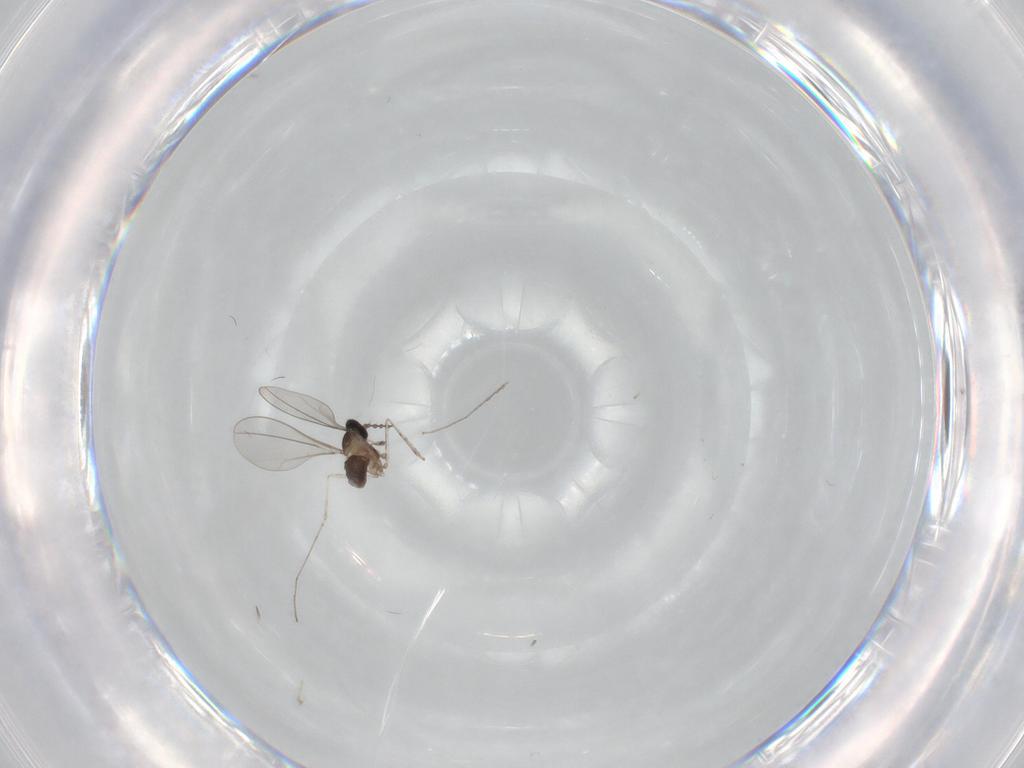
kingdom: Animalia
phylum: Arthropoda
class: Insecta
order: Diptera
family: Cecidomyiidae
